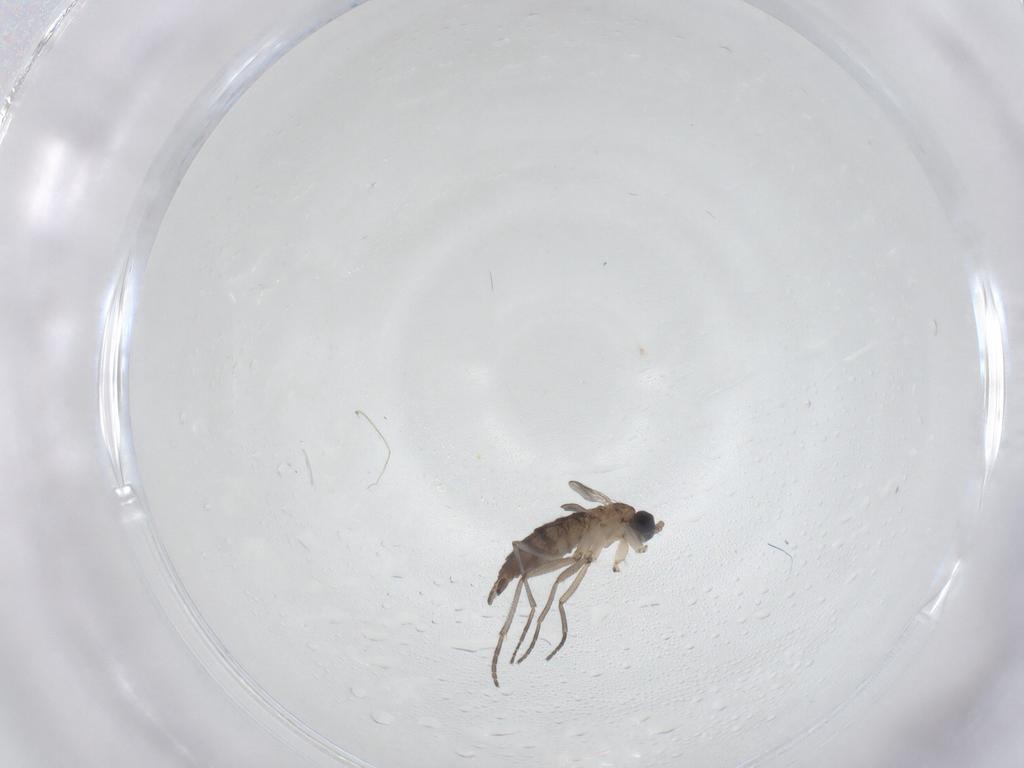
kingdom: Animalia
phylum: Arthropoda
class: Insecta
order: Diptera
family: Sciaridae
